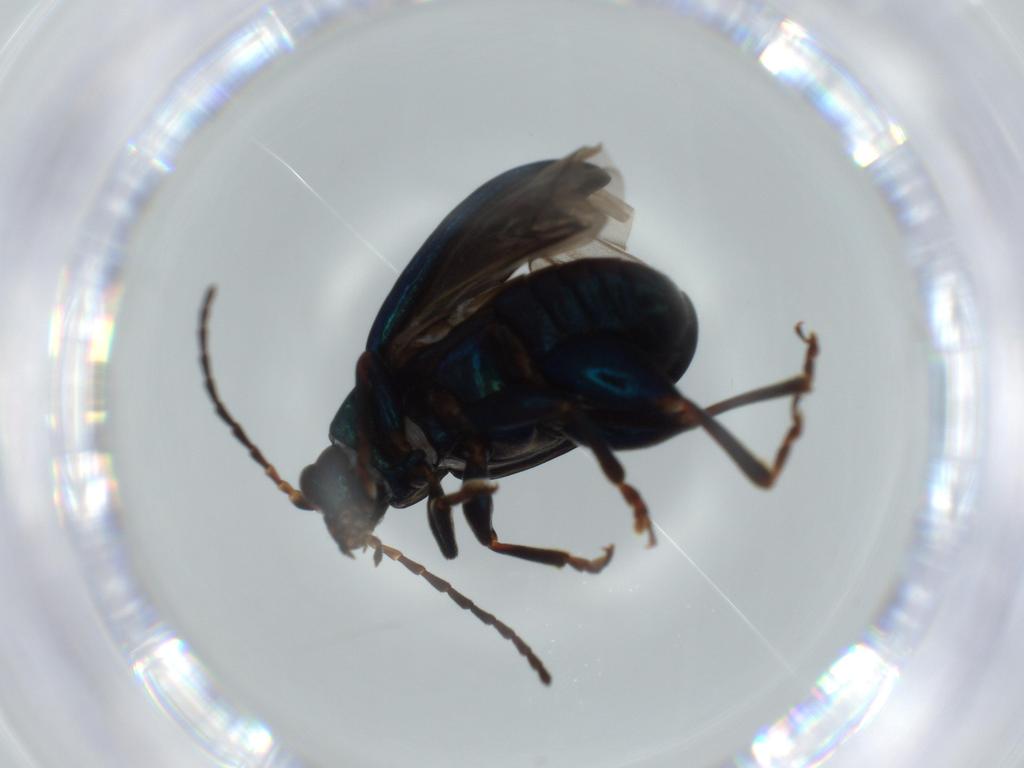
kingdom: Animalia
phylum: Arthropoda
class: Insecta
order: Coleoptera
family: Chrysomelidae
